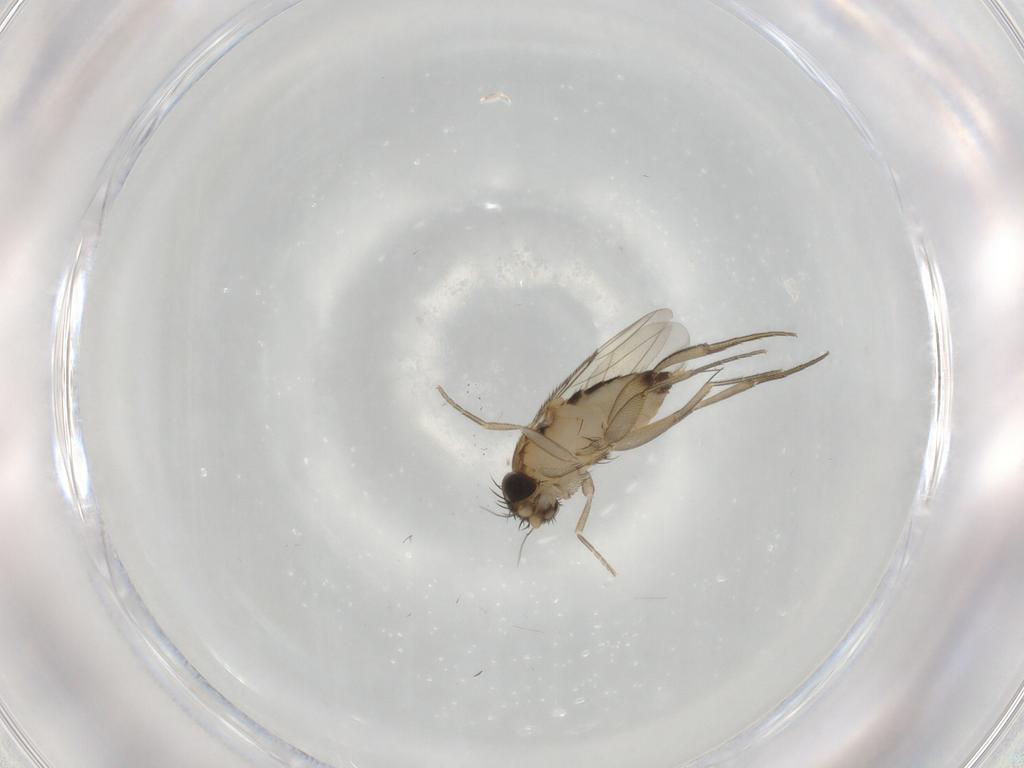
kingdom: Animalia
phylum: Arthropoda
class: Insecta
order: Diptera
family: Phoridae
